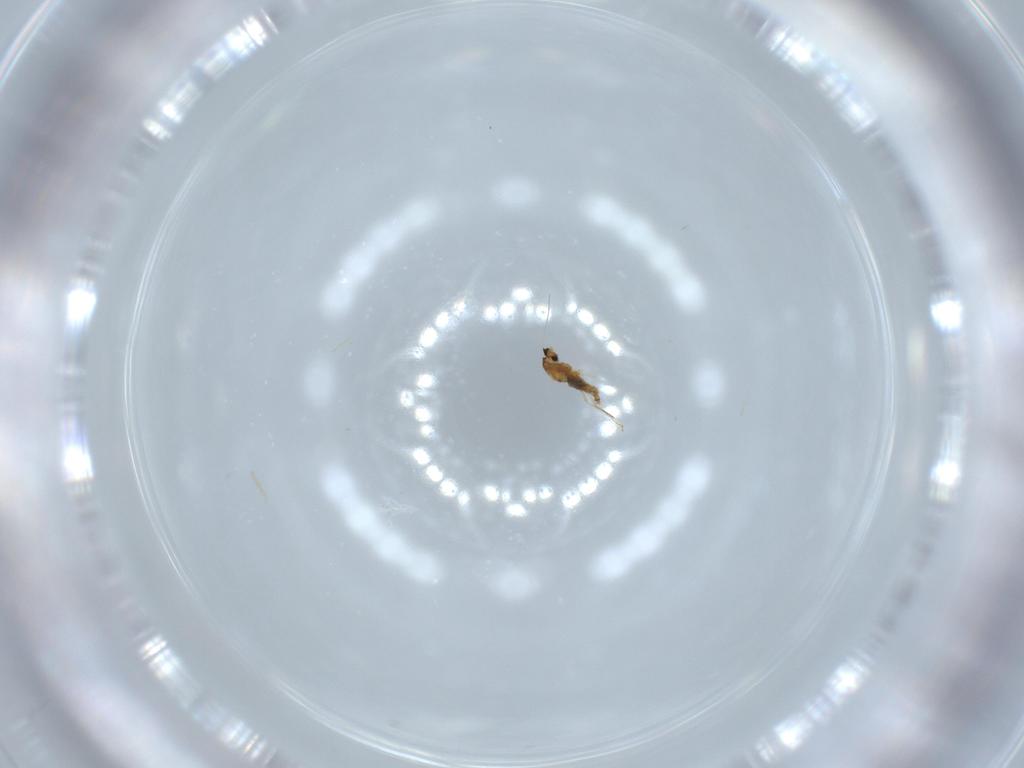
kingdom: Animalia
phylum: Arthropoda
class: Insecta
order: Diptera
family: Cecidomyiidae
